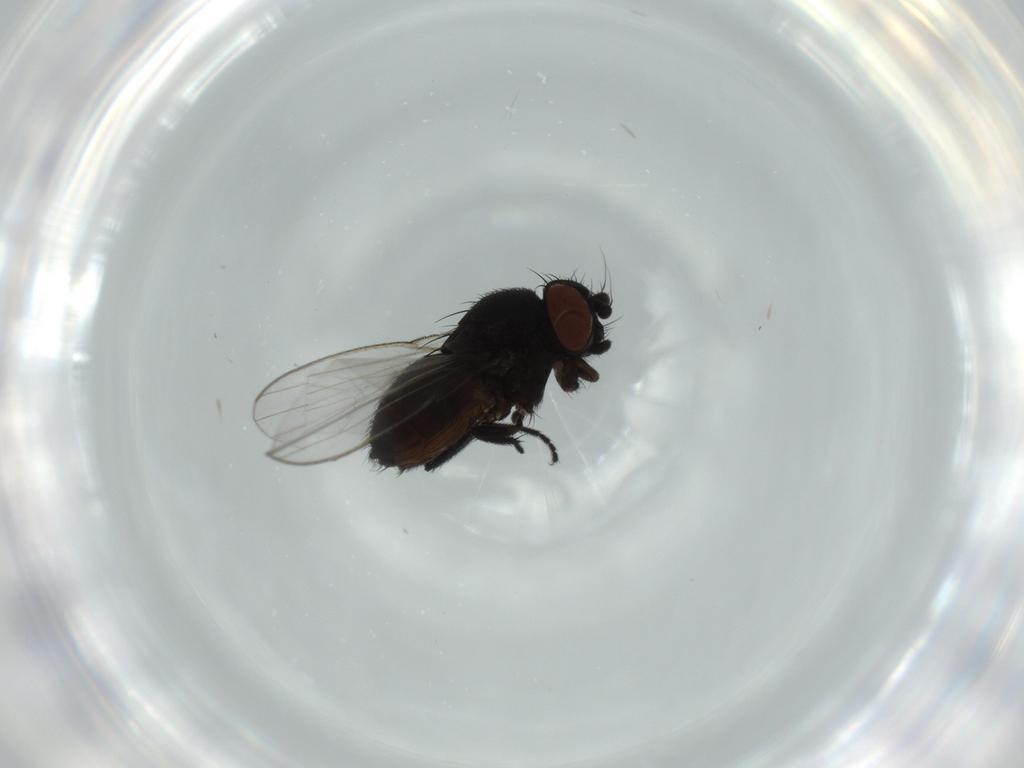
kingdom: Animalia
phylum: Arthropoda
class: Insecta
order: Diptera
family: Milichiidae
